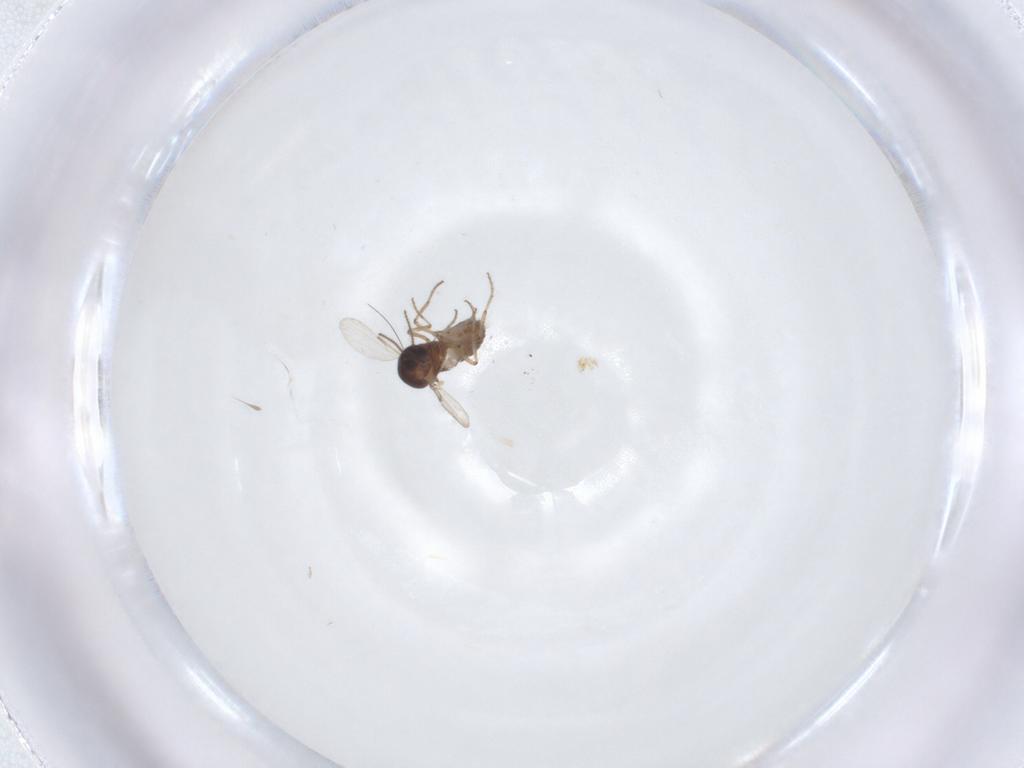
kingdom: Animalia
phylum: Arthropoda
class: Insecta
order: Diptera
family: Ceratopogonidae
